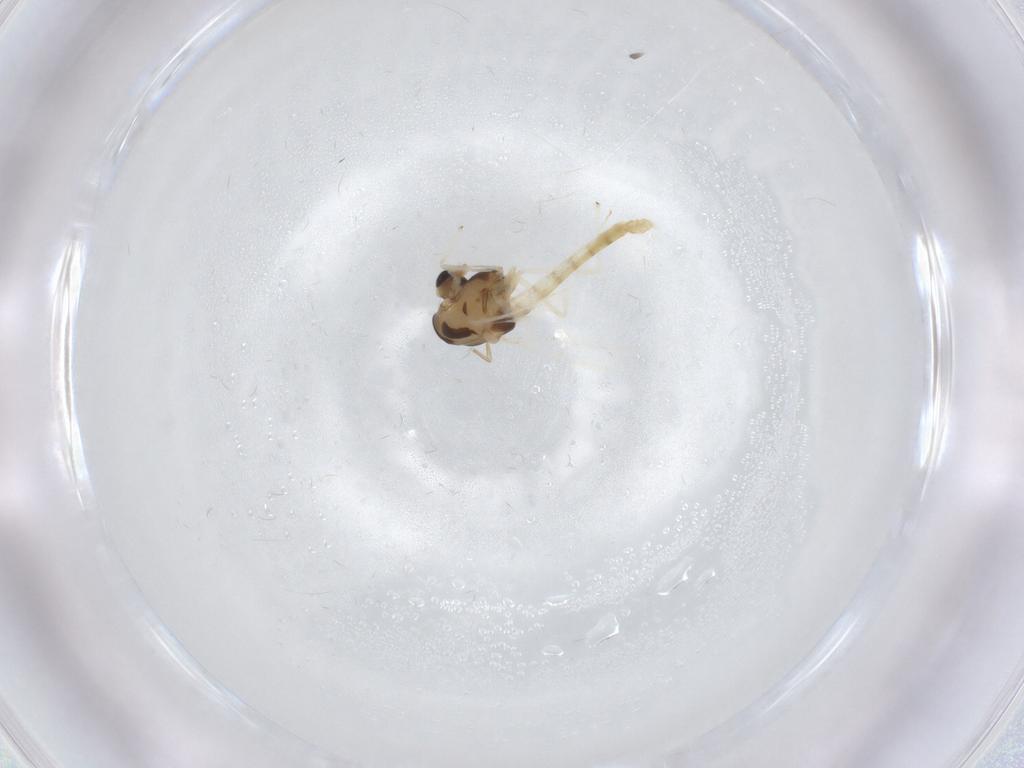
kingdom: Animalia
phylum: Arthropoda
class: Insecta
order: Diptera
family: Chironomidae
